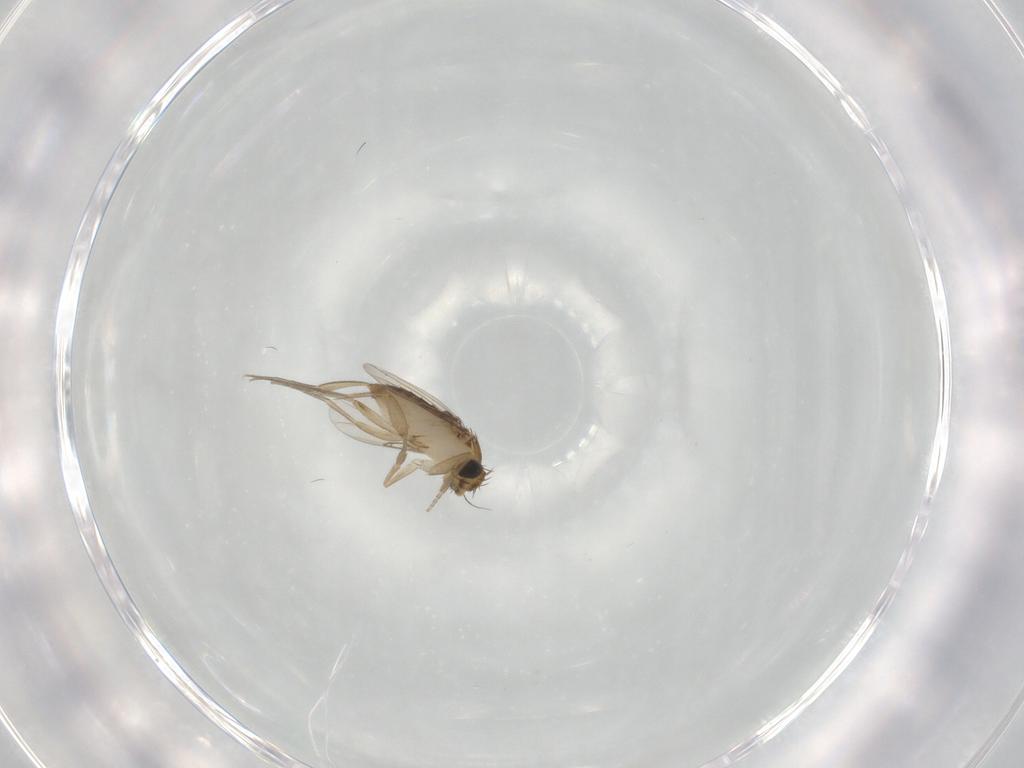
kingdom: Animalia
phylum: Arthropoda
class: Insecta
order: Diptera
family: Phoridae
